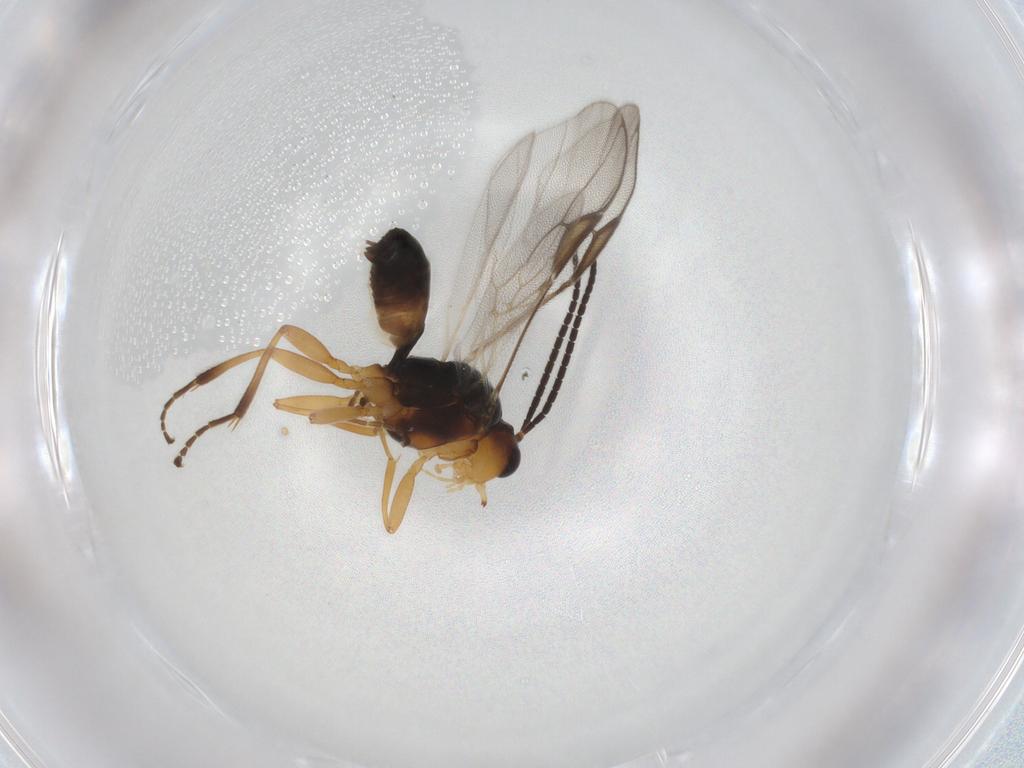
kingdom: Animalia
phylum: Arthropoda
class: Insecta
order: Hymenoptera
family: Braconidae
